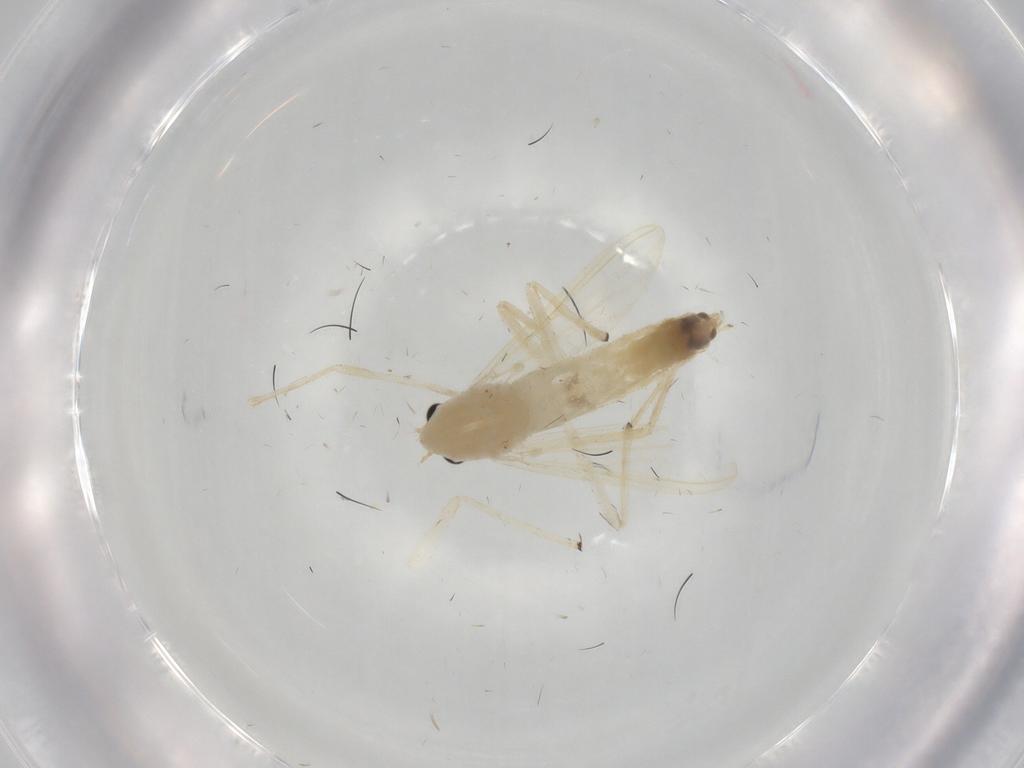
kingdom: Animalia
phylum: Arthropoda
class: Insecta
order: Diptera
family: Chironomidae
